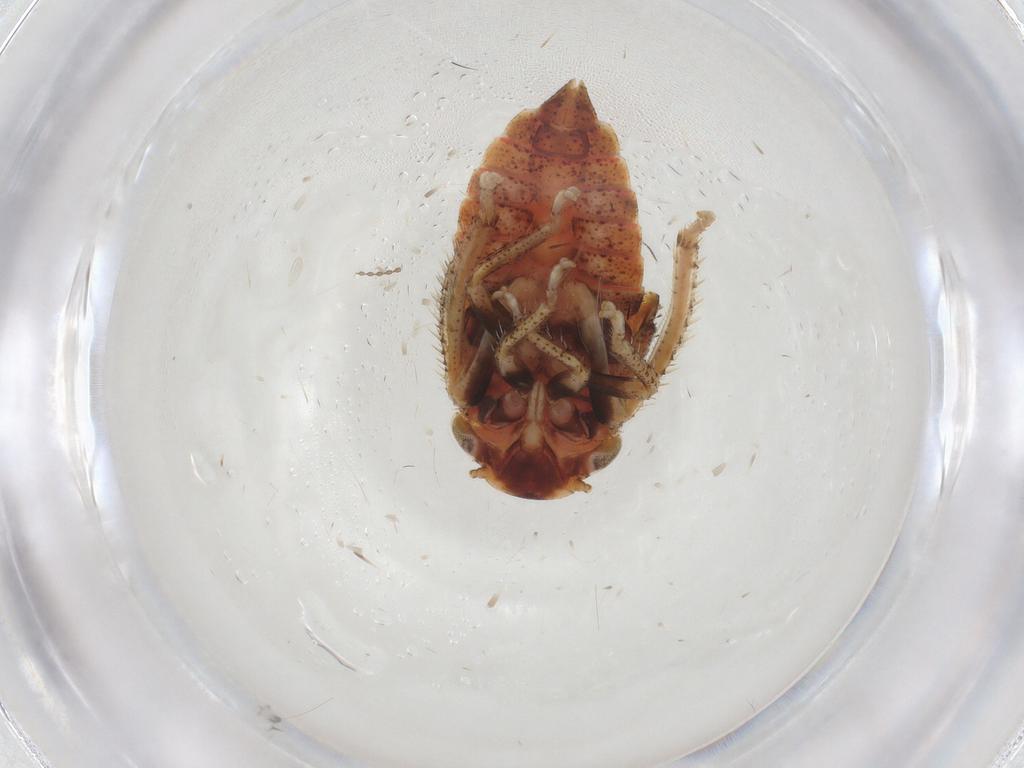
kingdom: Animalia
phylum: Arthropoda
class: Insecta
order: Hemiptera
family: Cicadellidae
